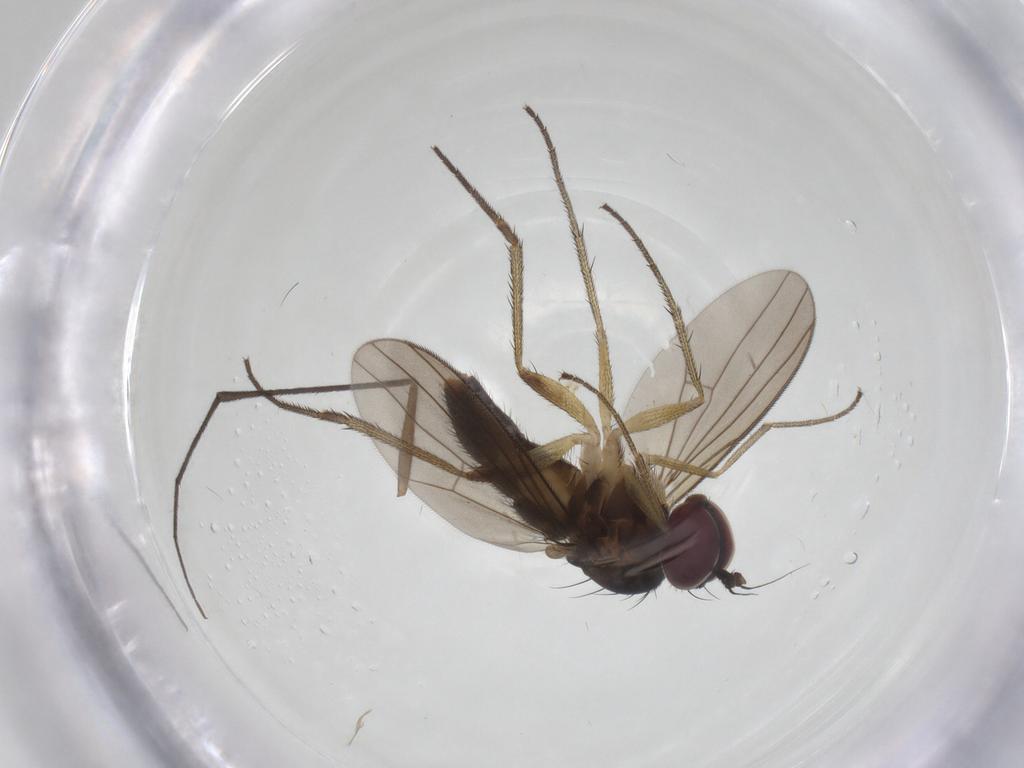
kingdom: Animalia
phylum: Arthropoda
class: Insecta
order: Diptera
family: Dolichopodidae
